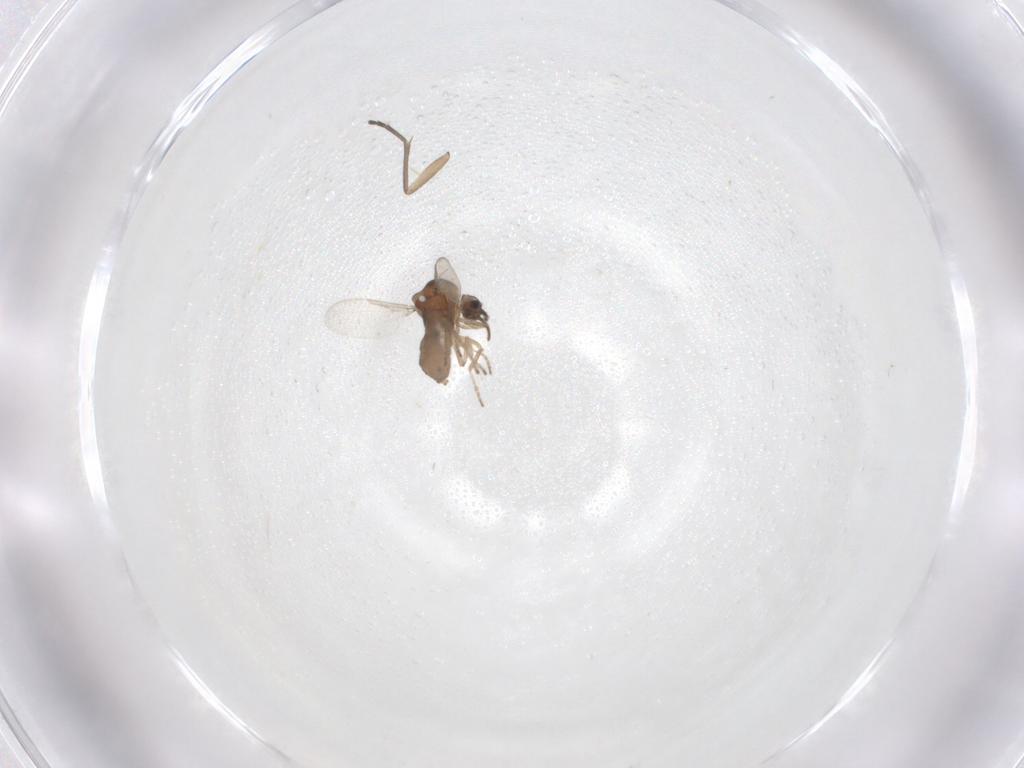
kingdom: Animalia
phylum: Arthropoda
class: Insecta
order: Diptera
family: Ceratopogonidae
